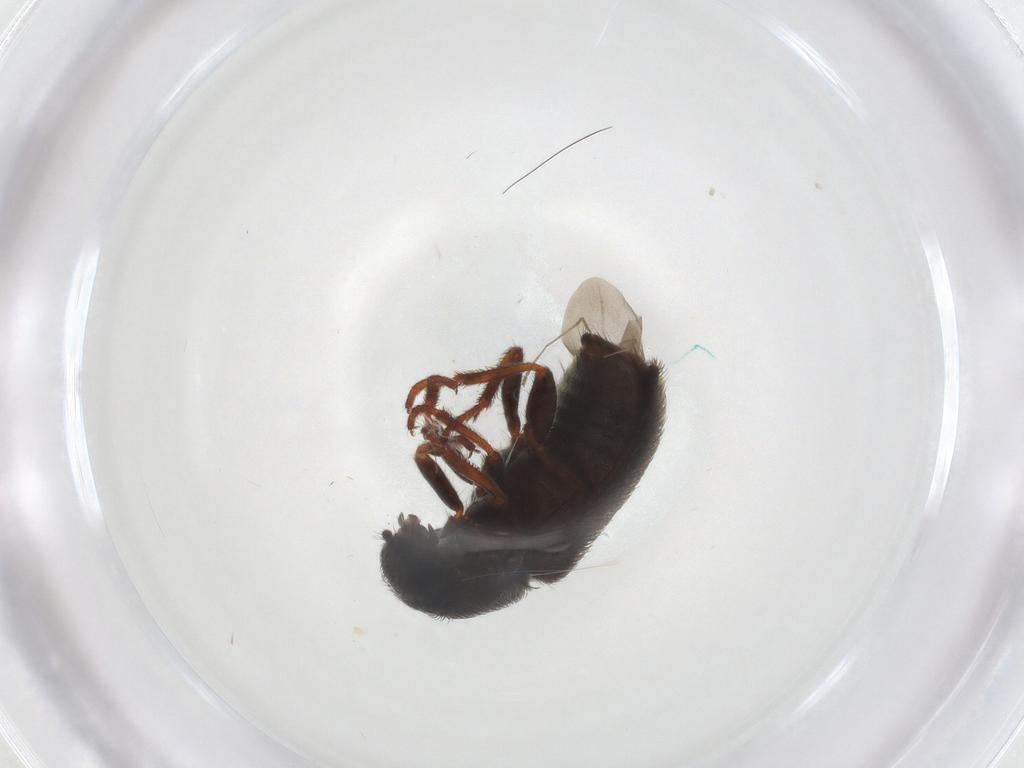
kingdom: Animalia
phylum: Arthropoda
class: Insecta
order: Coleoptera
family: Melyridae
